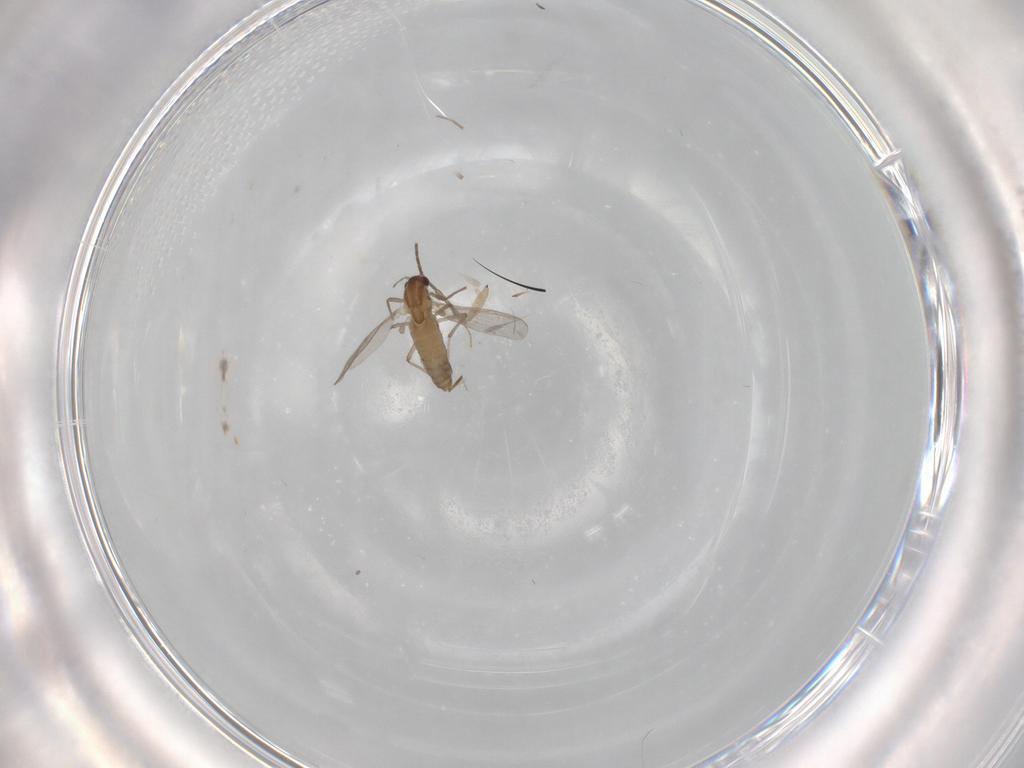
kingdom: Animalia
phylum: Arthropoda
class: Insecta
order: Diptera
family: Chironomidae
